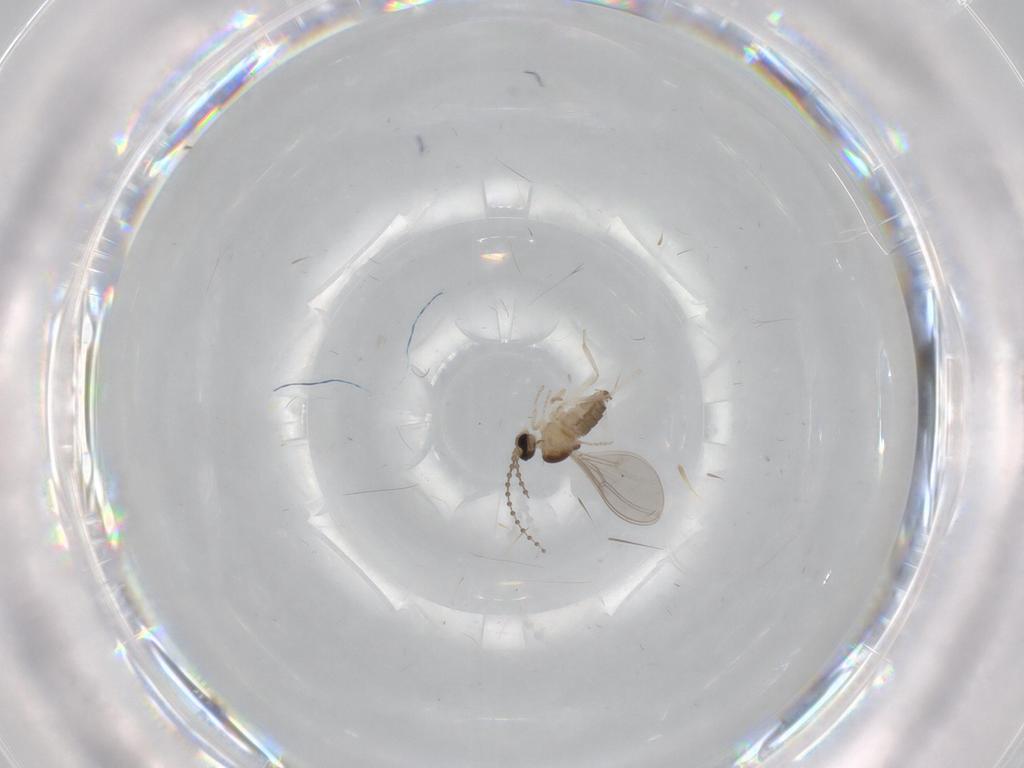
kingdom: Animalia
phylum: Arthropoda
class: Insecta
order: Diptera
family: Cecidomyiidae
